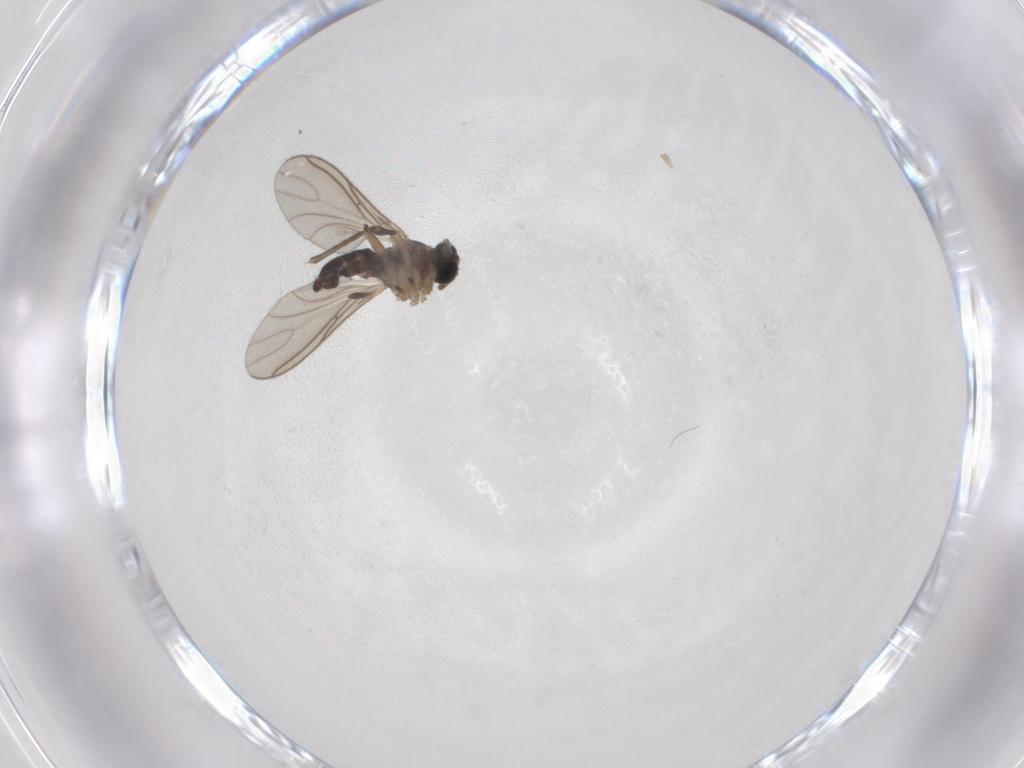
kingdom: Animalia
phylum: Arthropoda
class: Insecta
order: Diptera
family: Sciaridae
